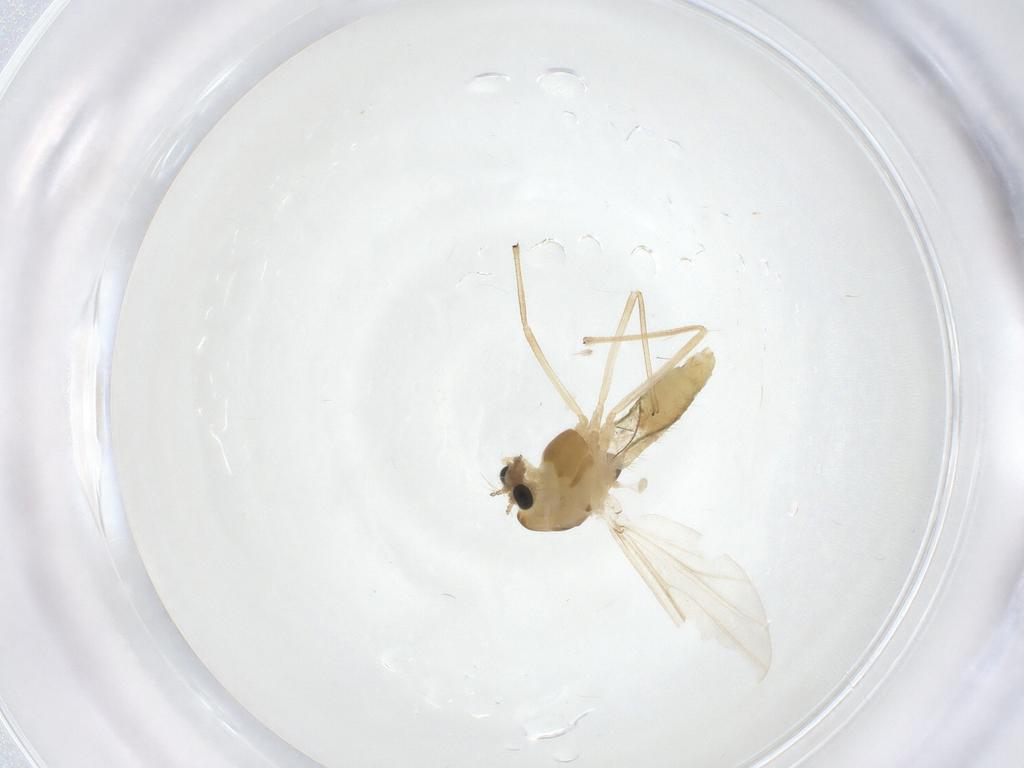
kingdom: Animalia
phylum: Arthropoda
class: Insecta
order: Diptera
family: Chironomidae
